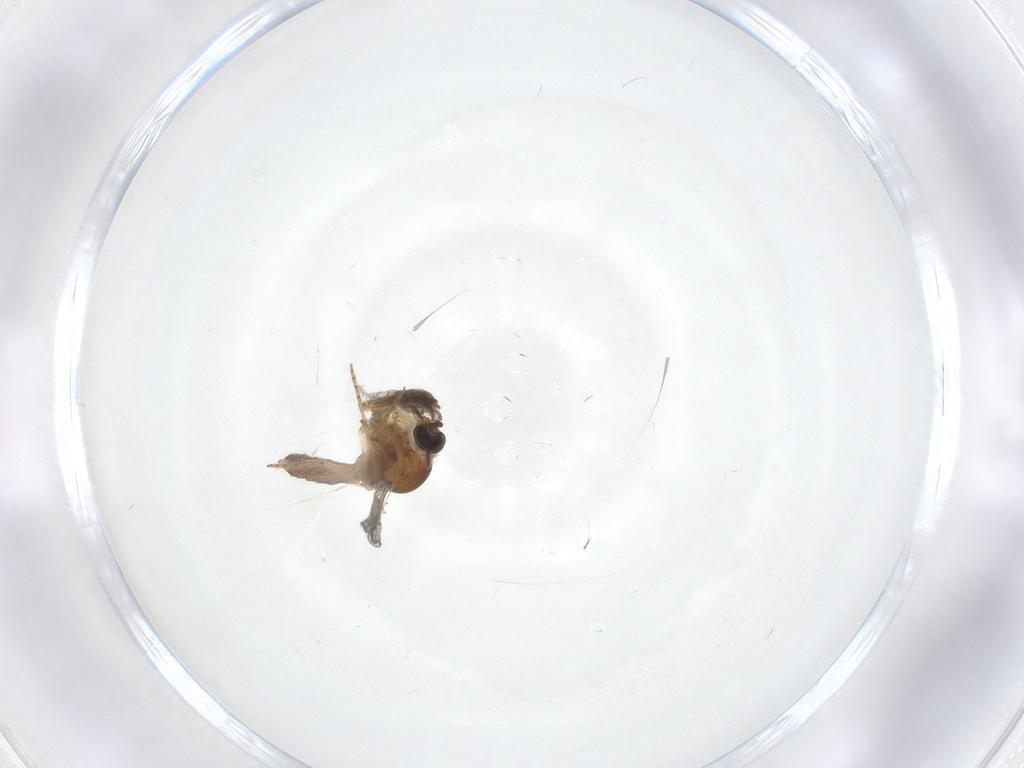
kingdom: Animalia
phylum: Arthropoda
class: Insecta
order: Diptera
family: Ceratopogonidae
